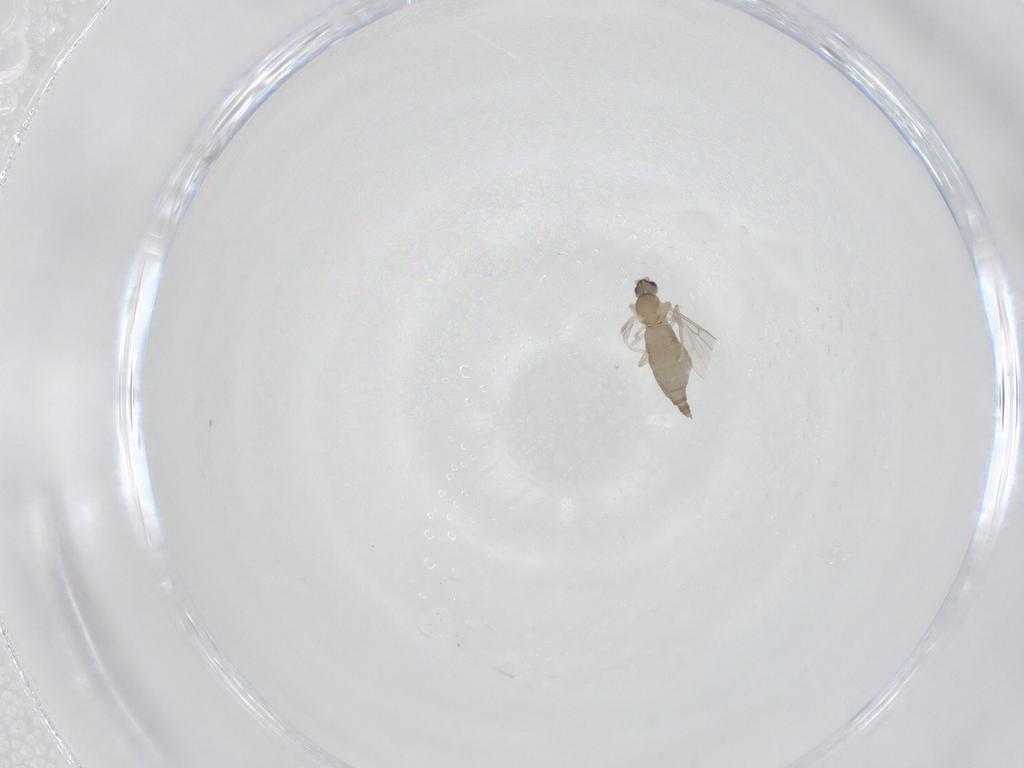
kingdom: Animalia
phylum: Arthropoda
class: Insecta
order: Diptera
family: Cecidomyiidae
